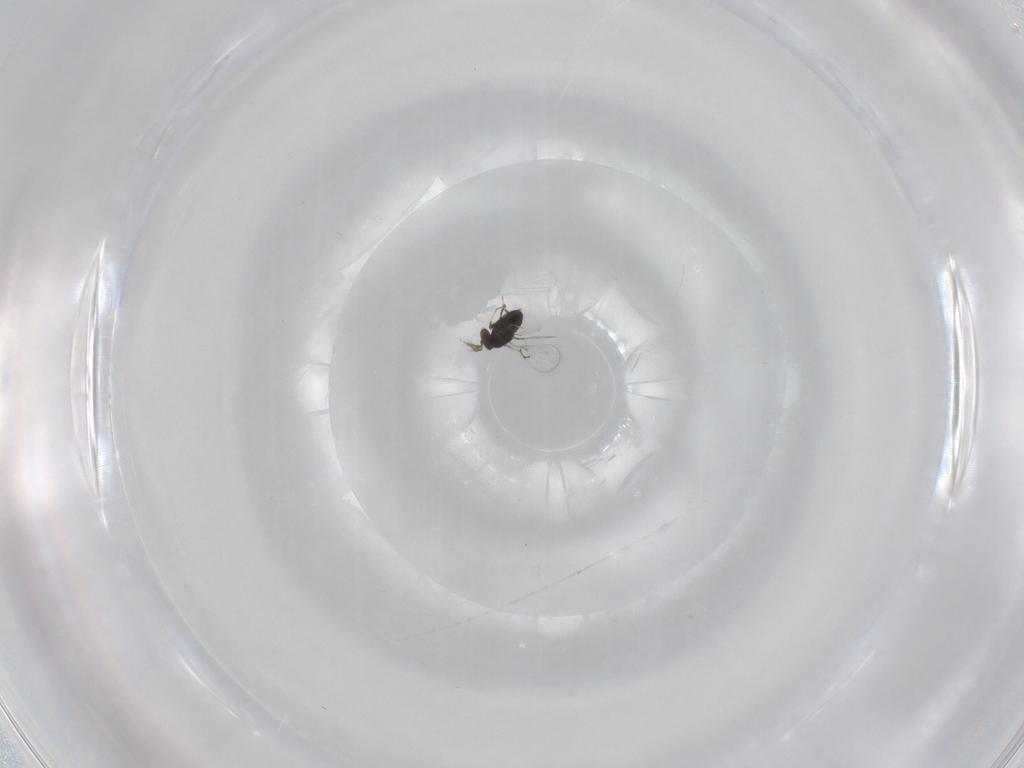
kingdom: Animalia
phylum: Arthropoda
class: Insecta
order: Hymenoptera
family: Trichogrammatidae
